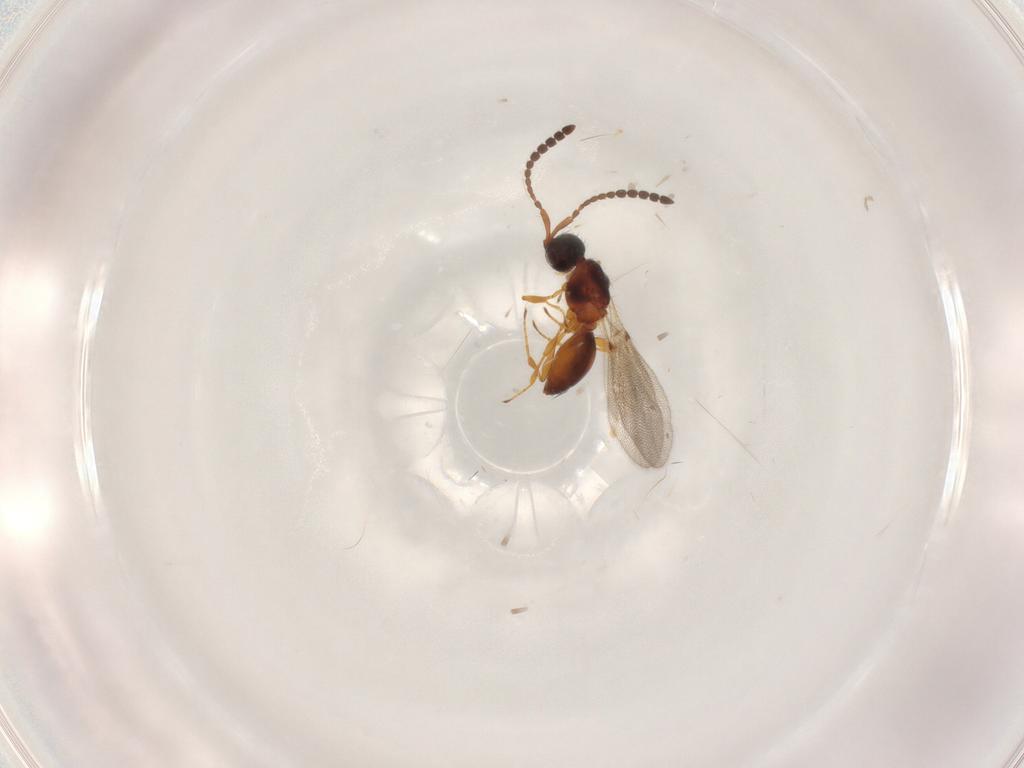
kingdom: Animalia
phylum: Arthropoda
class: Insecta
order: Hymenoptera
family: Diapriidae
